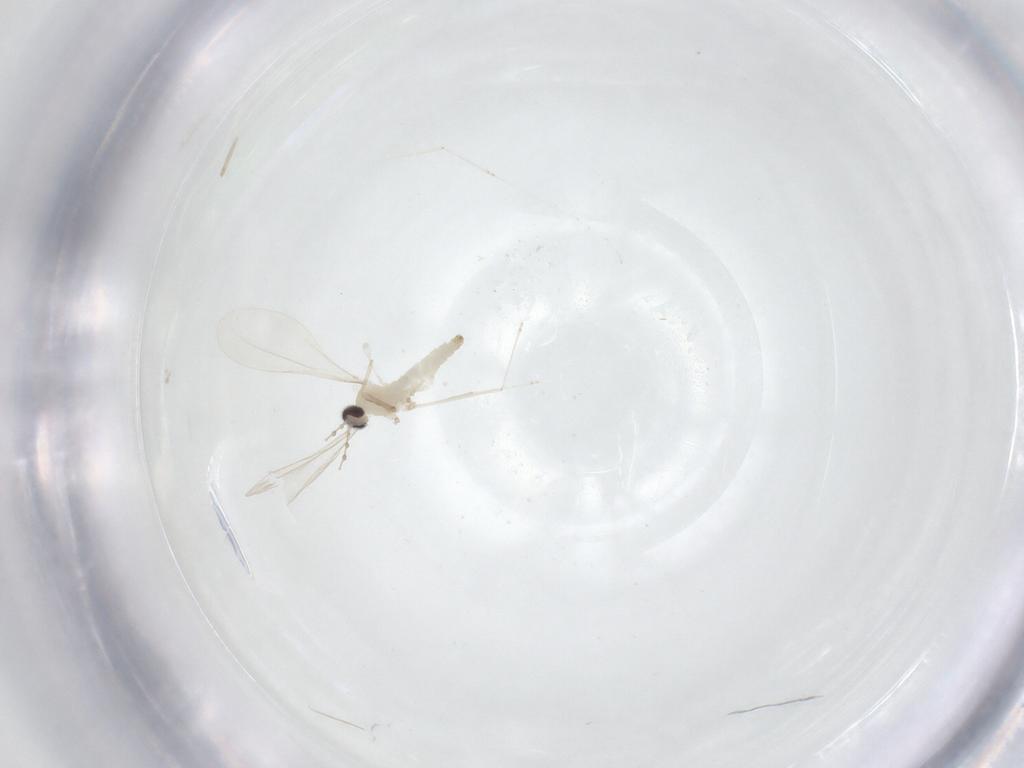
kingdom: Animalia
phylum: Arthropoda
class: Insecta
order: Diptera
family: Cecidomyiidae
